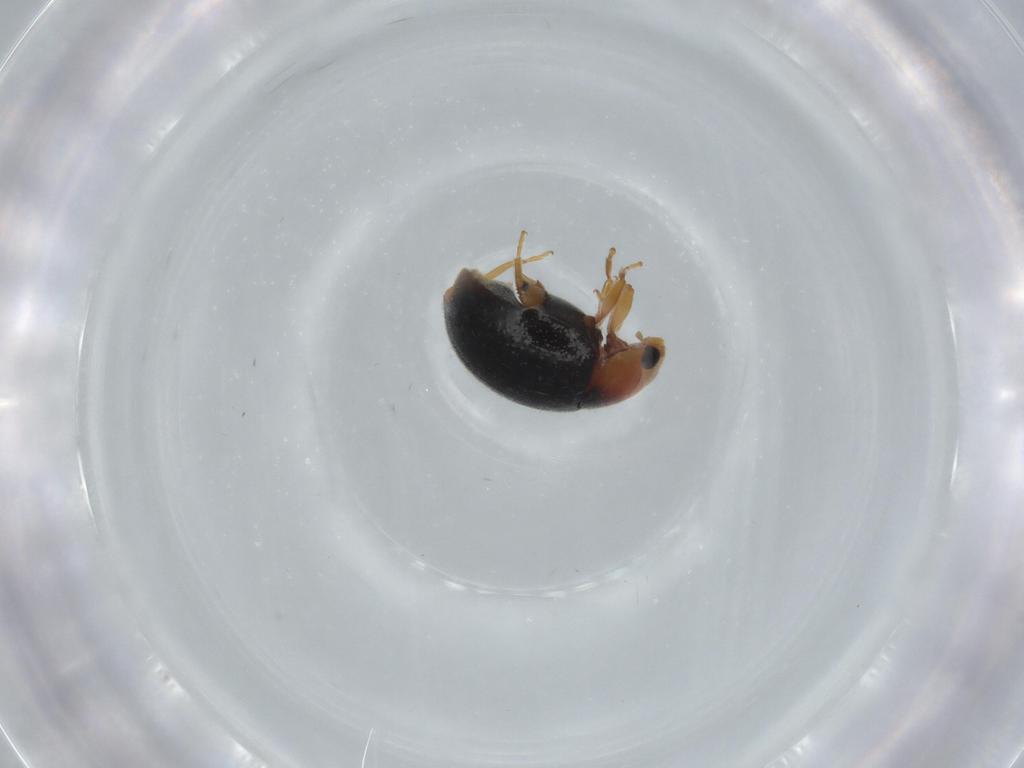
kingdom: Animalia
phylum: Arthropoda
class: Insecta
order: Coleoptera
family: Coccinellidae
